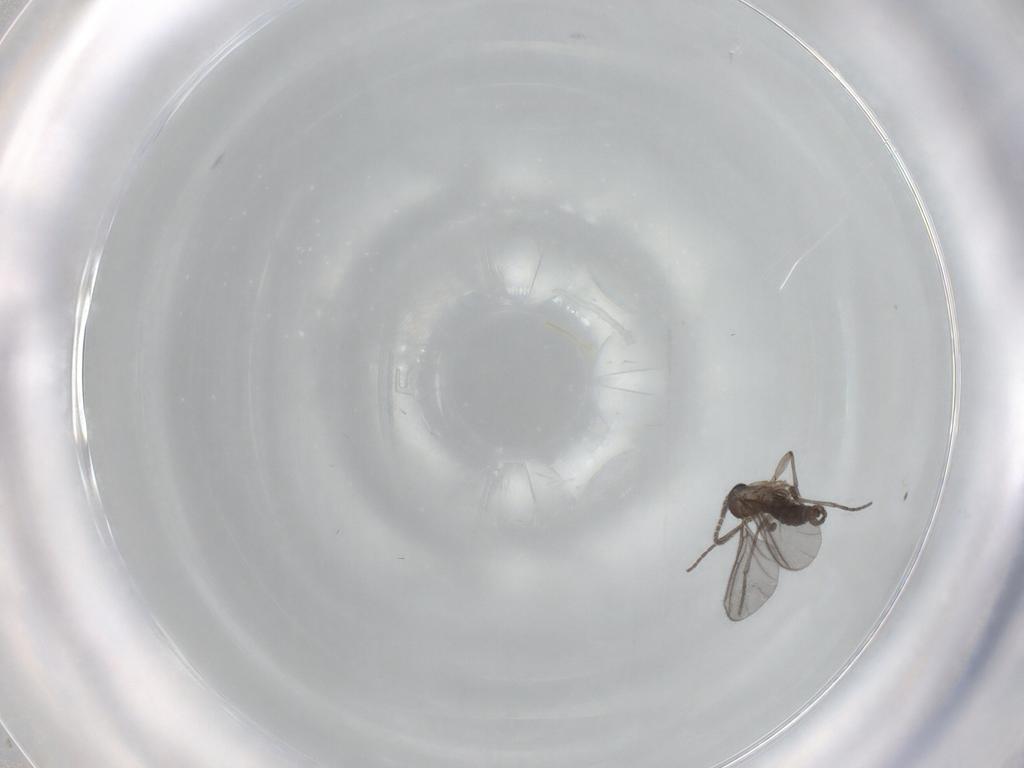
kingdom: Animalia
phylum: Arthropoda
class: Insecta
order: Diptera
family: Sciaridae
